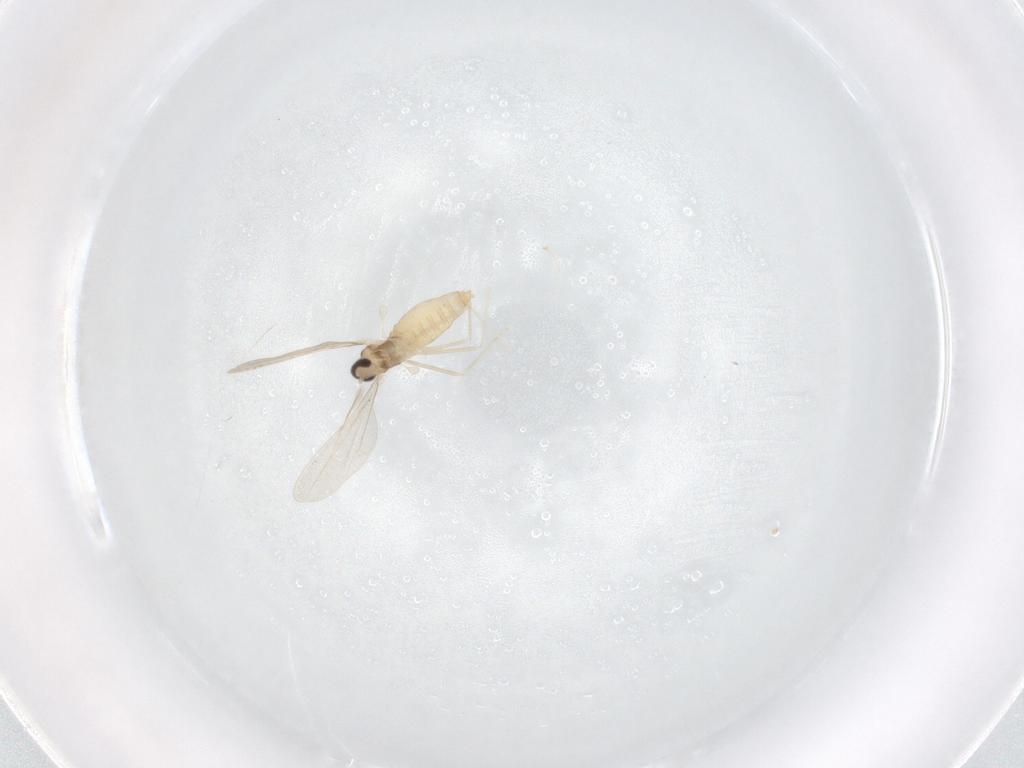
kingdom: Animalia
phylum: Arthropoda
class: Insecta
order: Diptera
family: Cecidomyiidae
